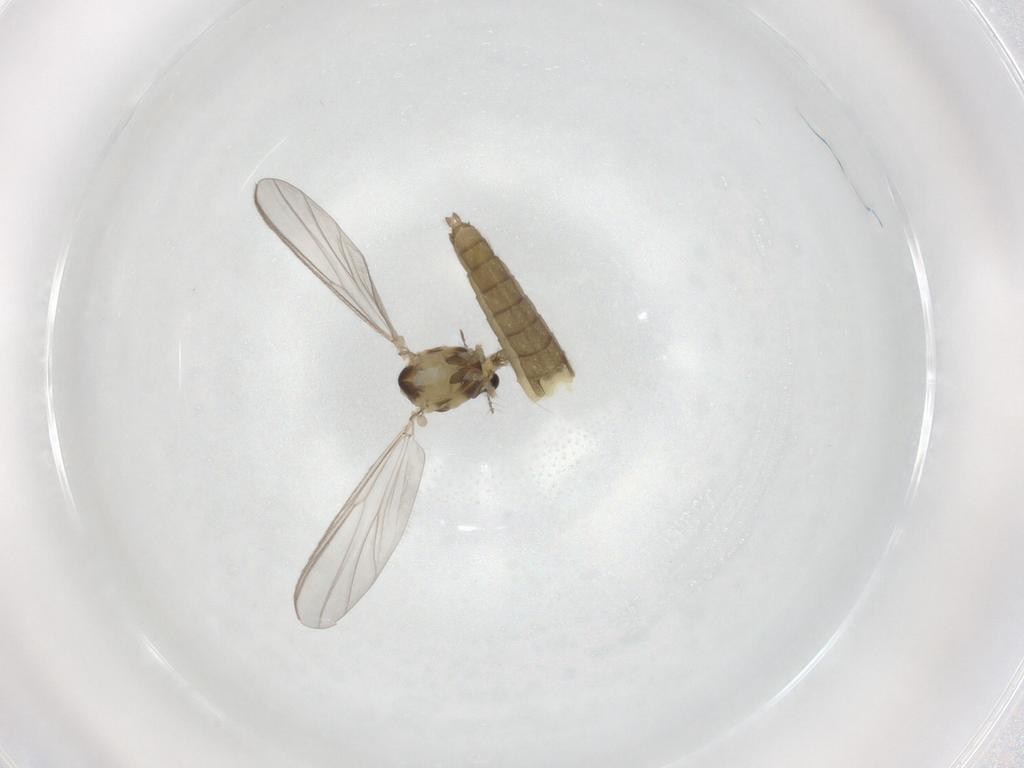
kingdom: Animalia
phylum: Arthropoda
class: Insecta
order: Diptera
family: Chironomidae
